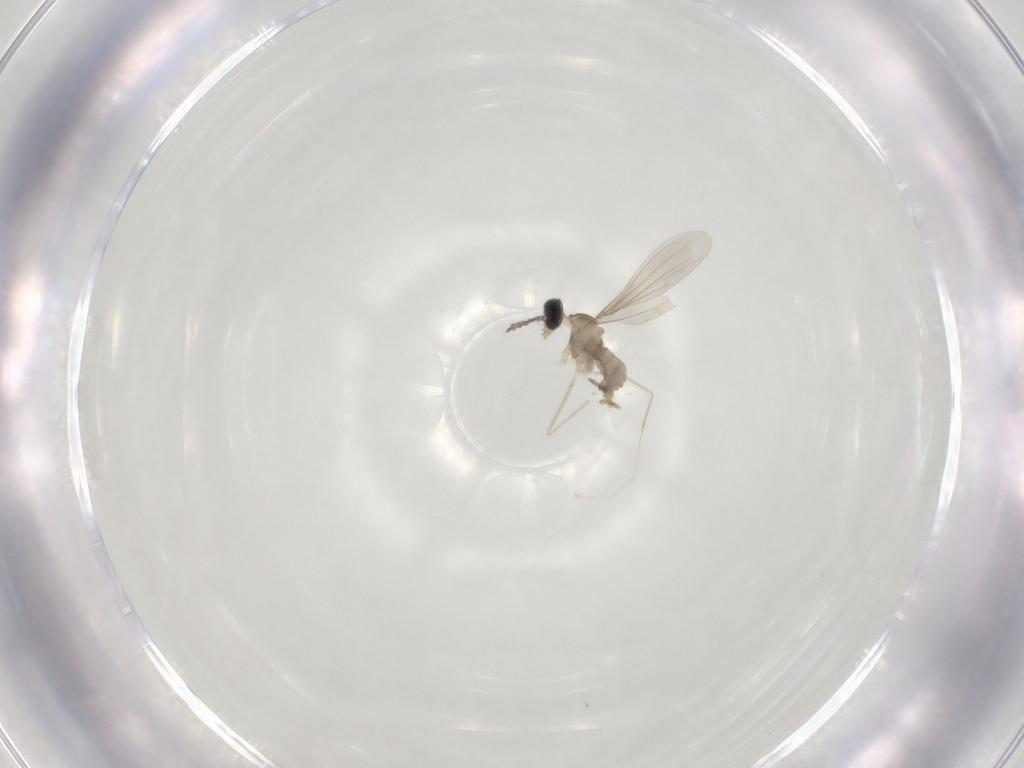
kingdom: Animalia
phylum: Arthropoda
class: Insecta
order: Diptera
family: Cecidomyiidae
